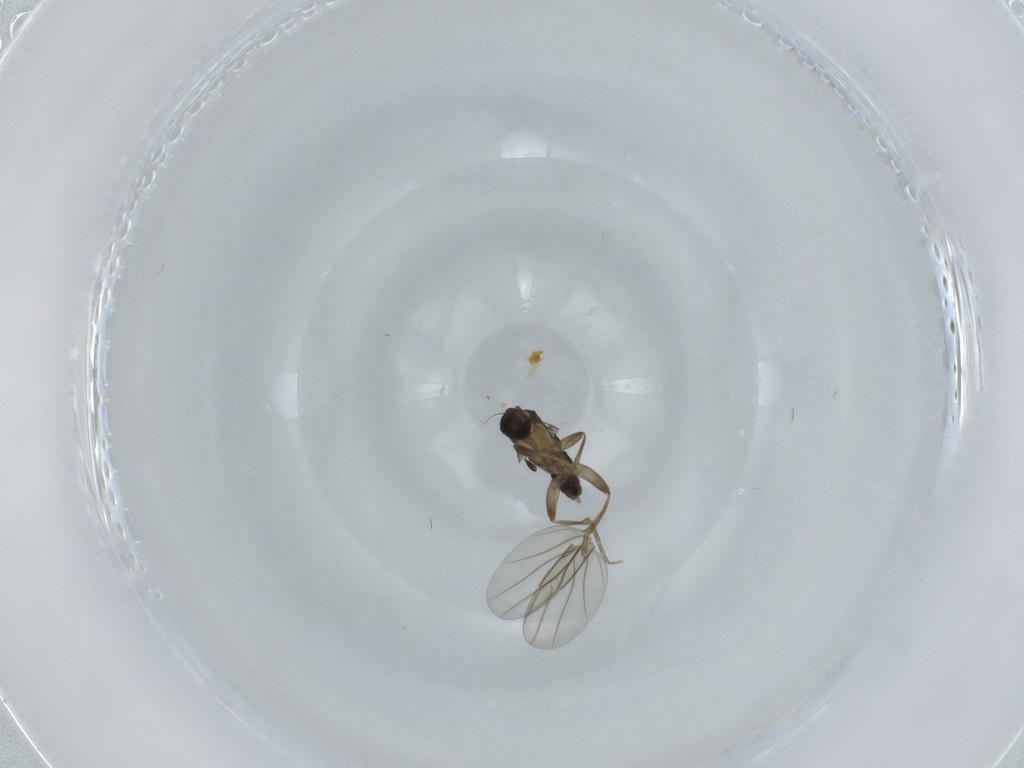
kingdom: Animalia
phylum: Arthropoda
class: Insecta
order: Diptera
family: Phoridae
